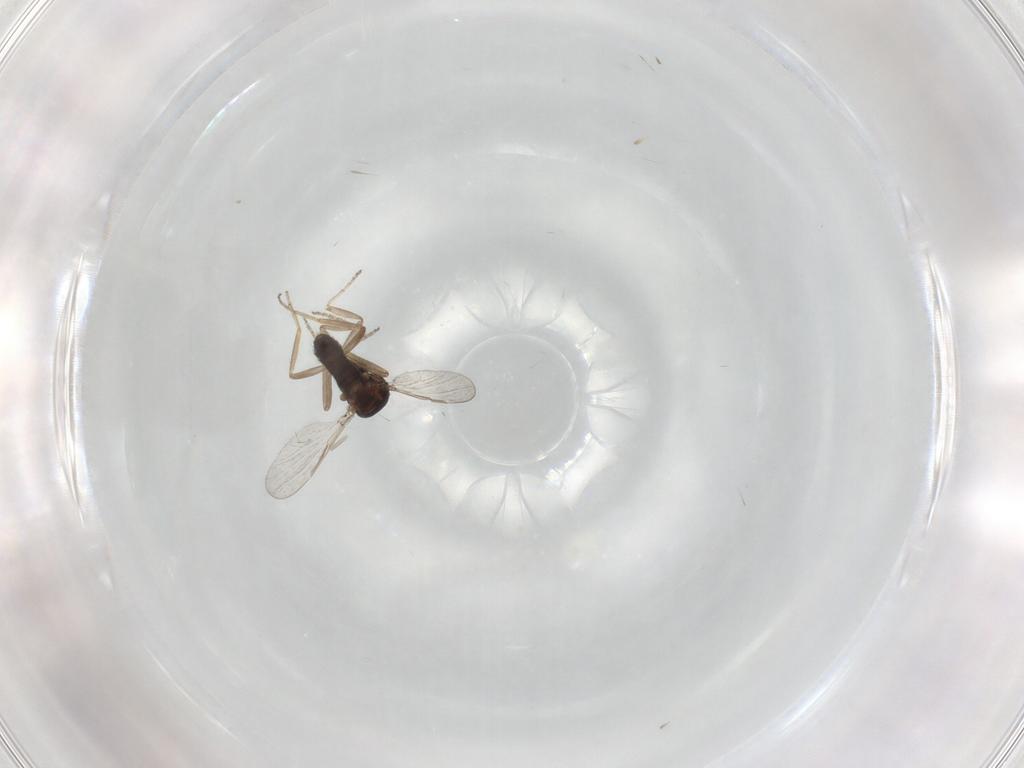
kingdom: Animalia
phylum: Arthropoda
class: Insecta
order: Diptera
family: Ceratopogonidae
